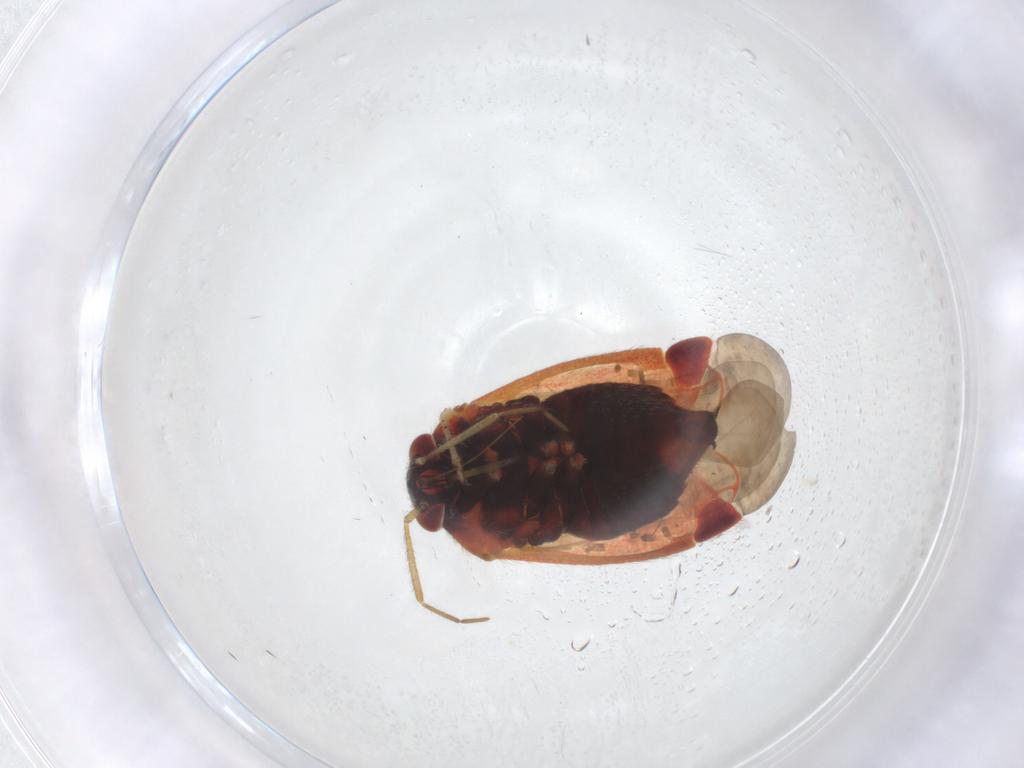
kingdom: Animalia
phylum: Arthropoda
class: Insecta
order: Hemiptera
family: Miridae
